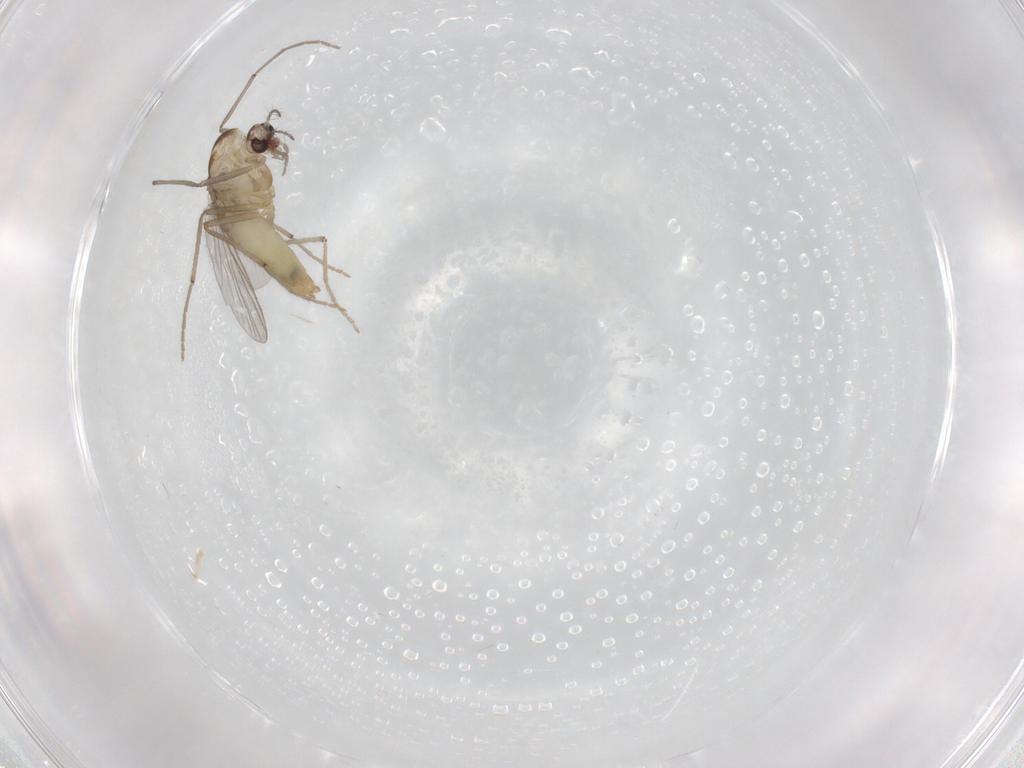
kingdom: Animalia
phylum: Arthropoda
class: Insecta
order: Diptera
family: Chironomidae
